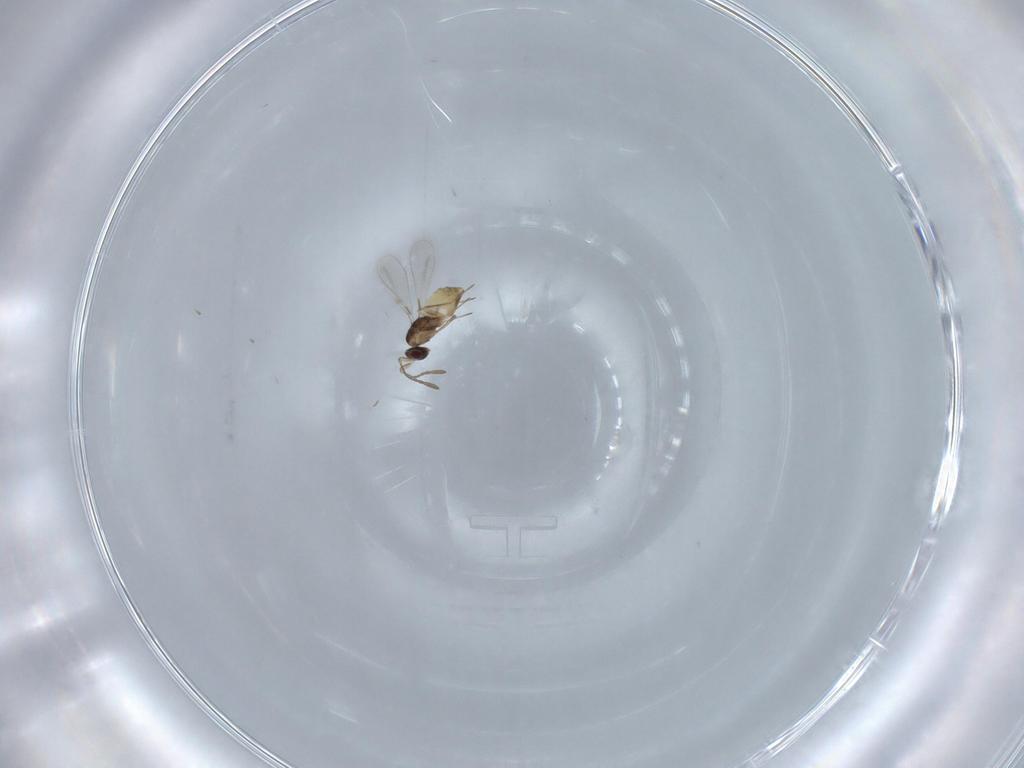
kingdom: Animalia
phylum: Arthropoda
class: Insecta
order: Hymenoptera
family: Mymaridae
